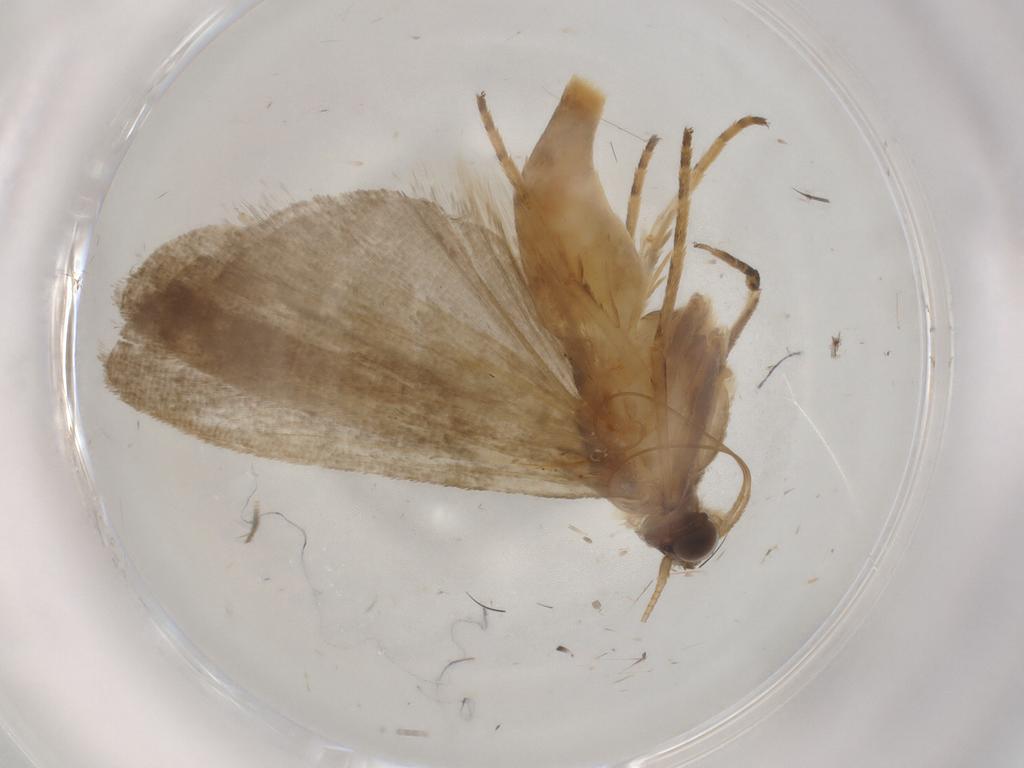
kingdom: Animalia
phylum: Arthropoda
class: Insecta
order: Lepidoptera
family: Noctuidae
